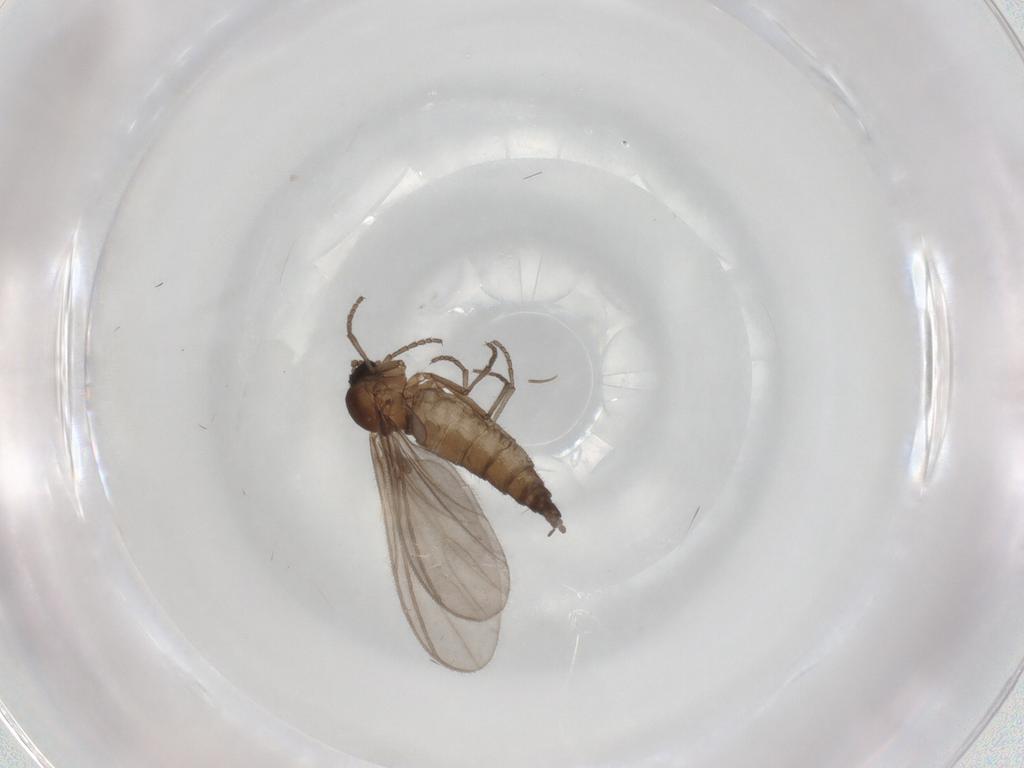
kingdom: Animalia
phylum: Arthropoda
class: Insecta
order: Diptera
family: Sciaridae
